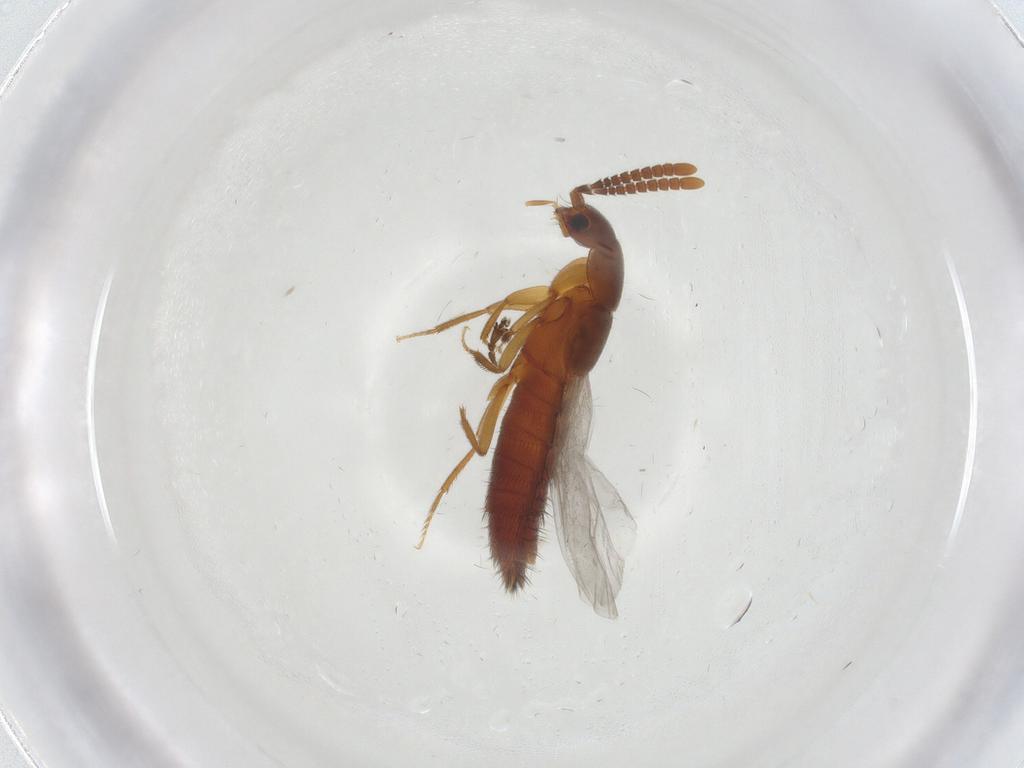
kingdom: Animalia
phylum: Arthropoda
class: Insecta
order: Coleoptera
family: Staphylinidae
